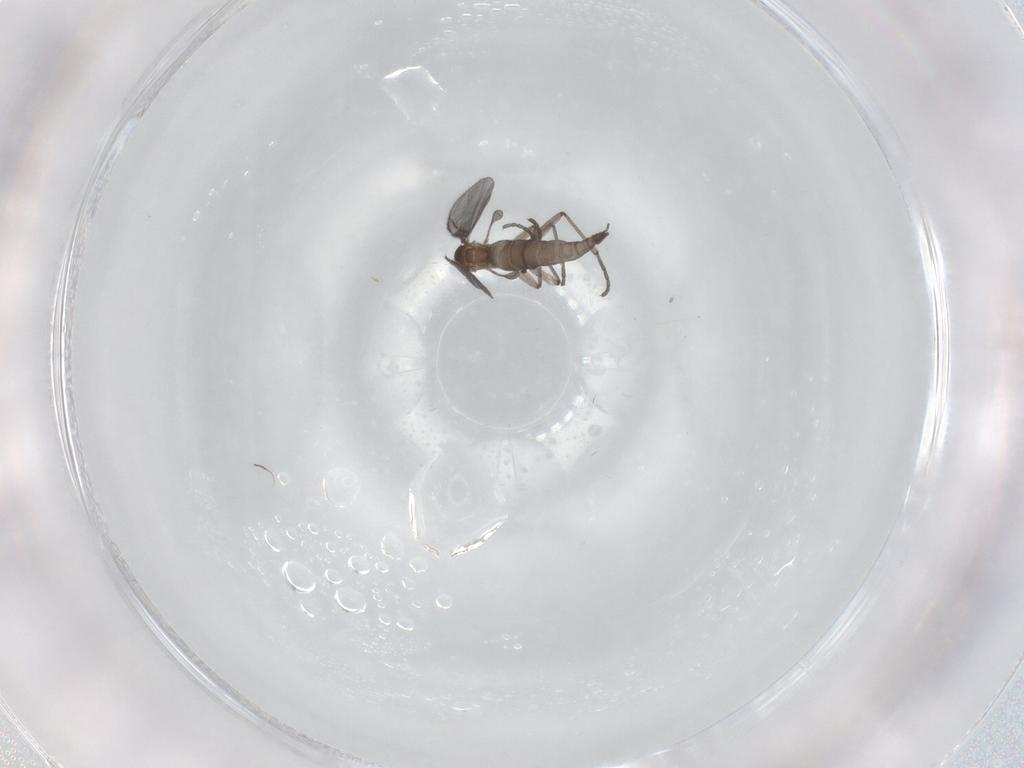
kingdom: Animalia
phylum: Arthropoda
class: Insecta
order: Diptera
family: Sciaridae
